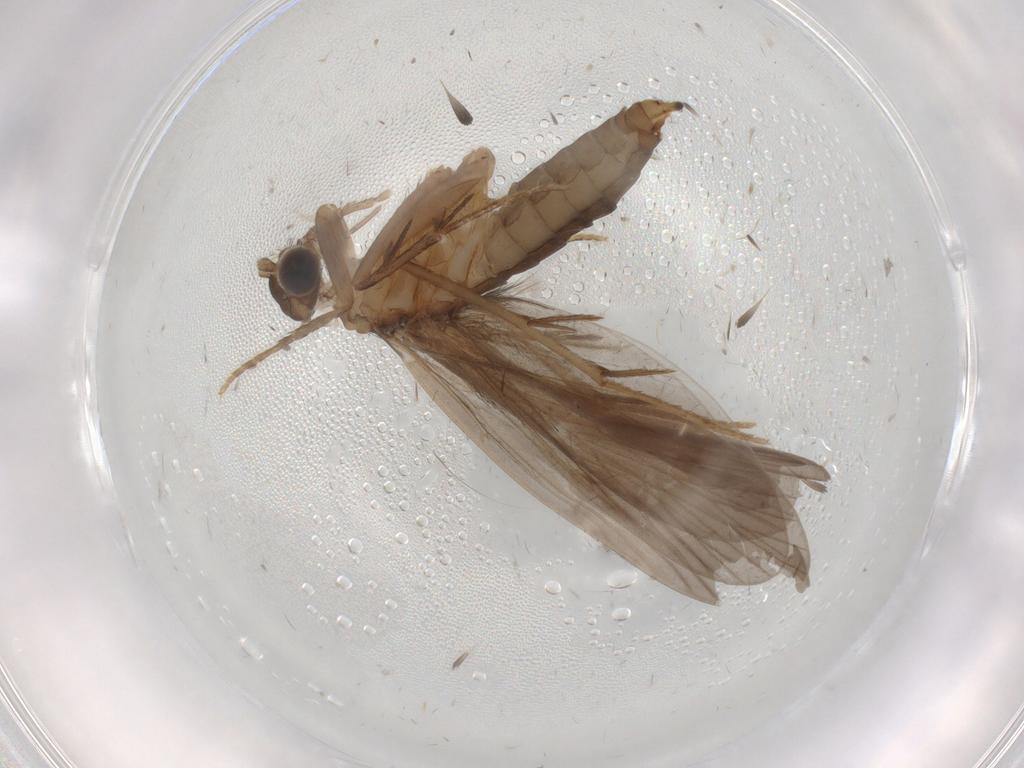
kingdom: Animalia
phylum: Arthropoda
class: Insecta
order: Trichoptera
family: Philopotamidae
